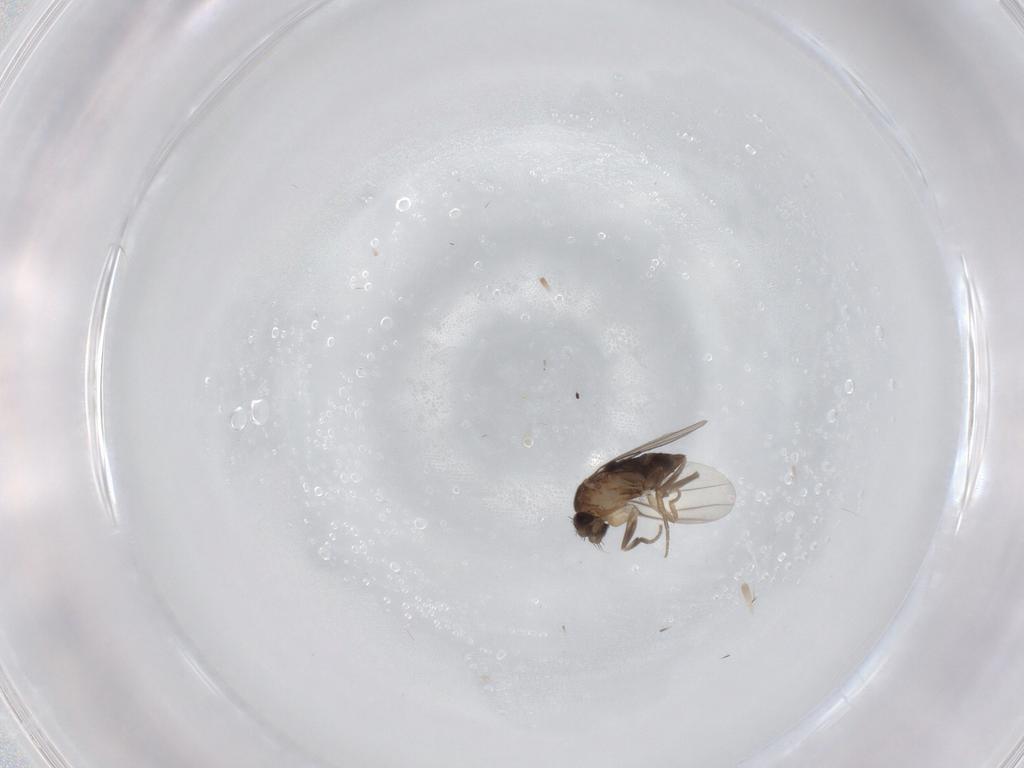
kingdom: Animalia
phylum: Arthropoda
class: Insecta
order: Diptera
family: Phoridae
